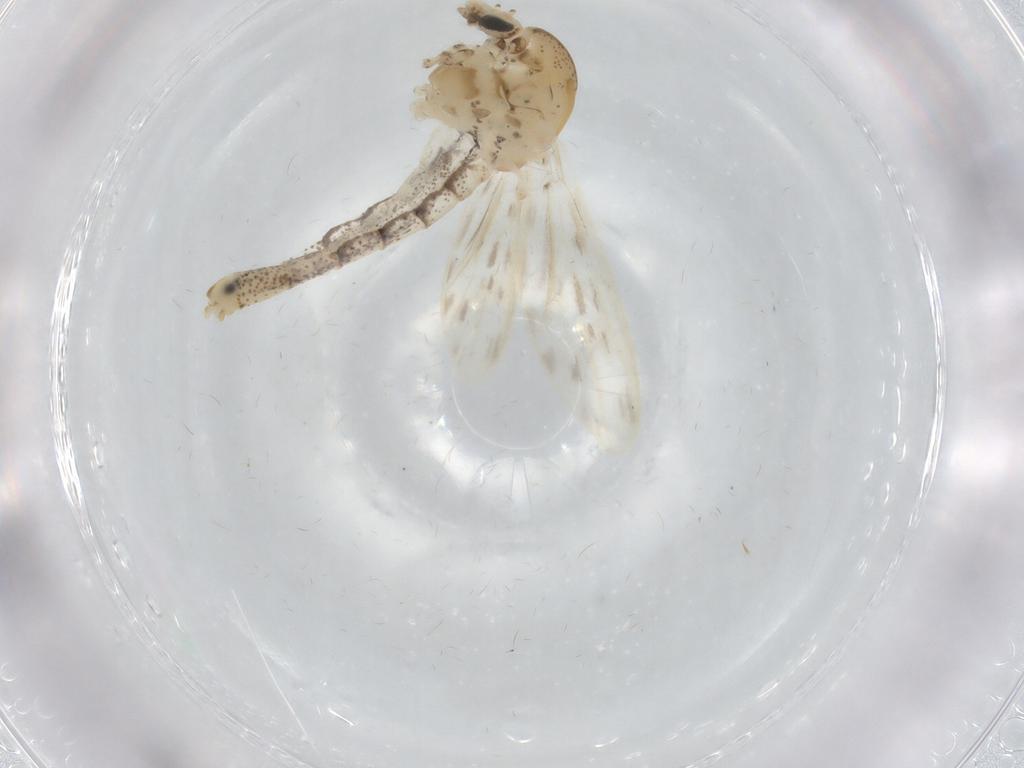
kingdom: Animalia
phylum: Arthropoda
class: Insecta
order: Diptera
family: Chaoboridae
